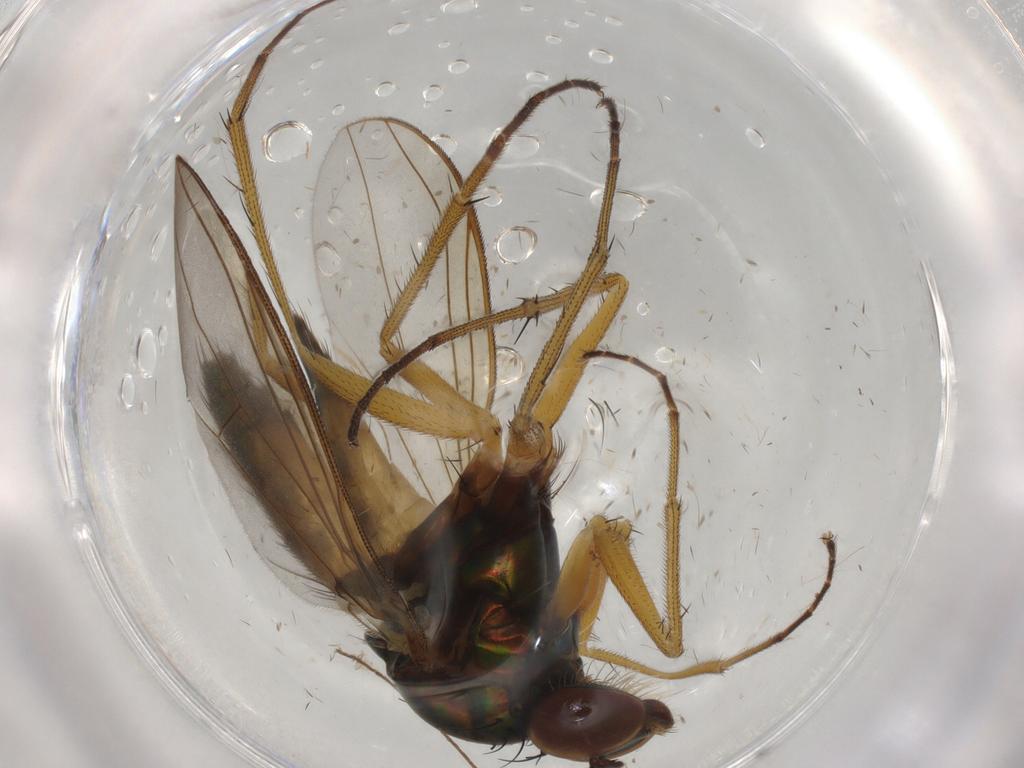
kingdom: Animalia
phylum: Arthropoda
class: Insecta
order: Diptera
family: Limoniidae
